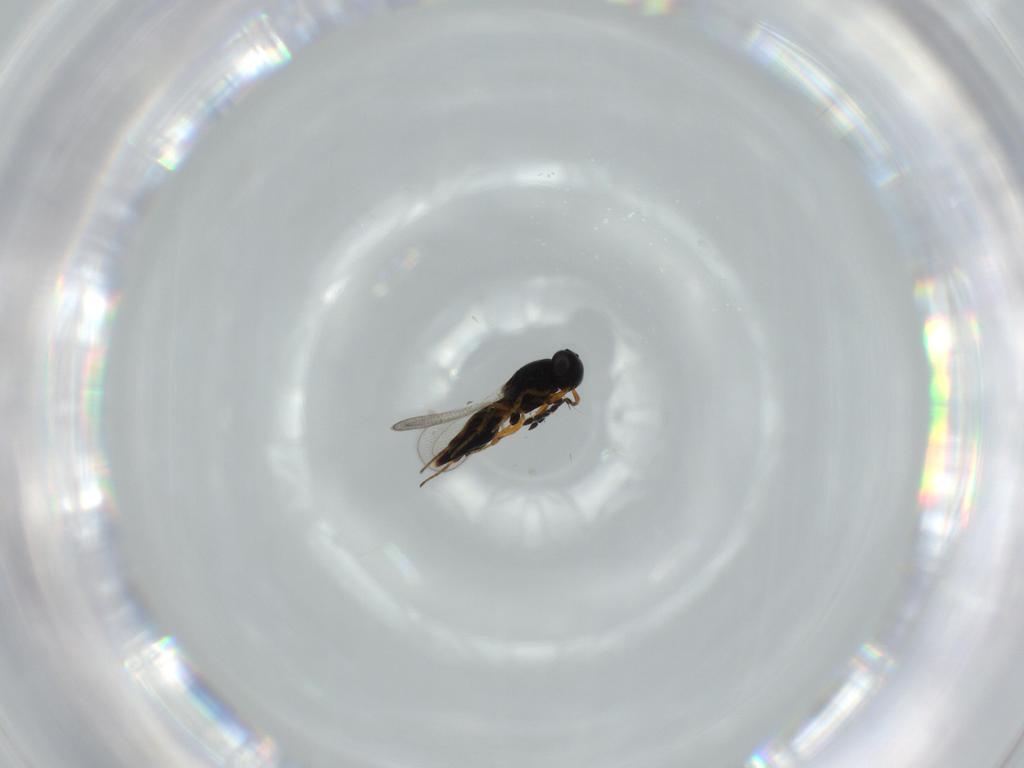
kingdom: Animalia
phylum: Arthropoda
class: Insecta
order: Hymenoptera
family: Platygastridae
